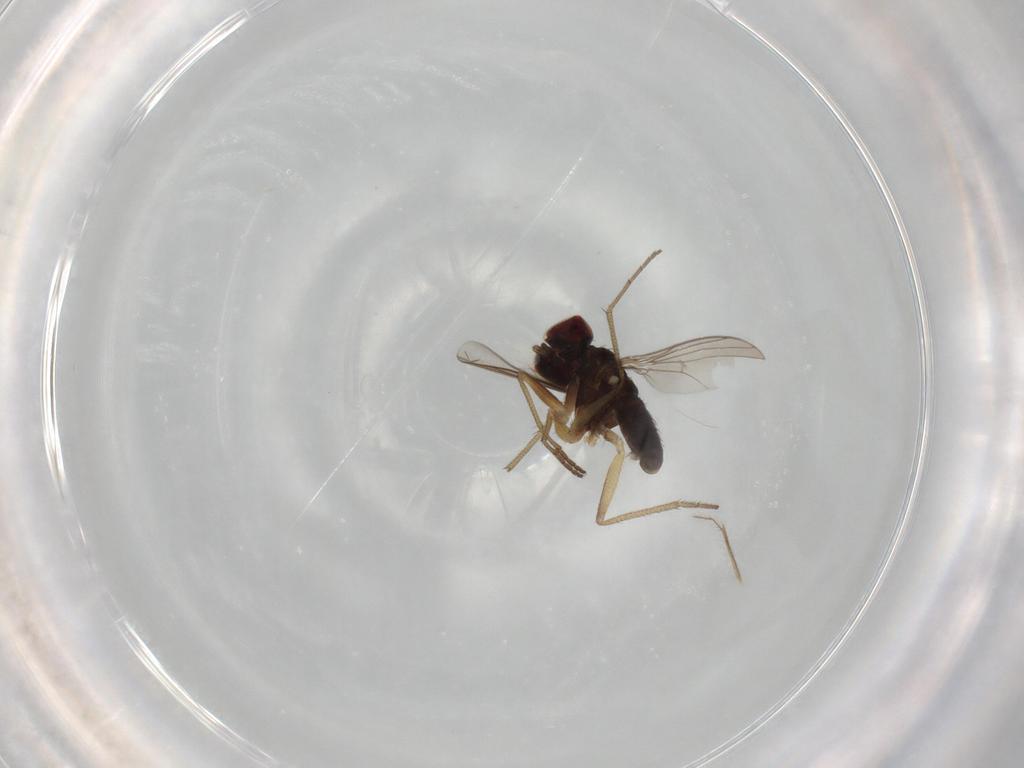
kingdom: Animalia
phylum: Arthropoda
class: Insecta
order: Diptera
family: Dolichopodidae
